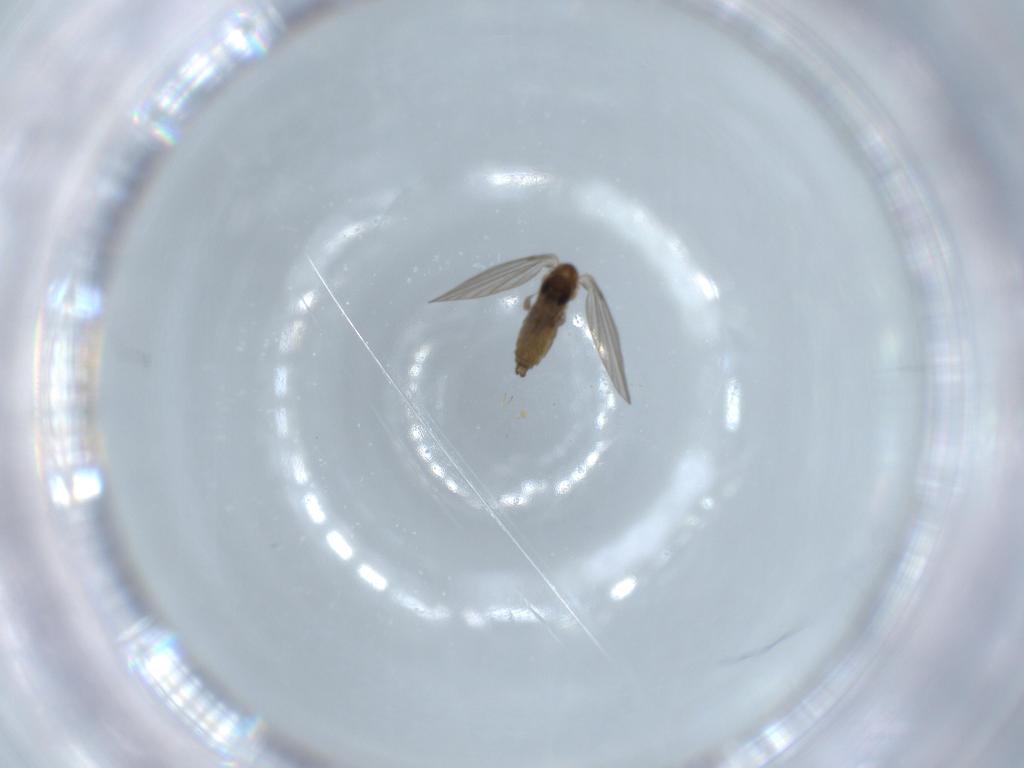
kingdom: Animalia
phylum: Arthropoda
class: Insecta
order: Diptera
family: Psychodidae
